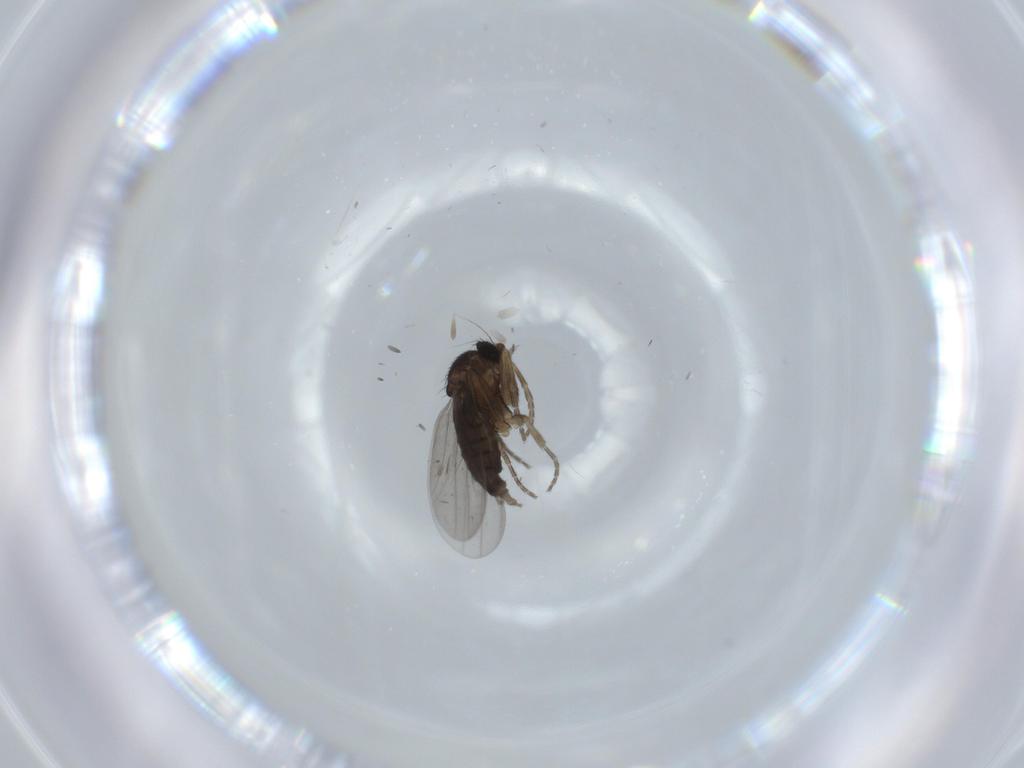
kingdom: Animalia
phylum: Arthropoda
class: Insecta
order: Diptera
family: Phoridae
